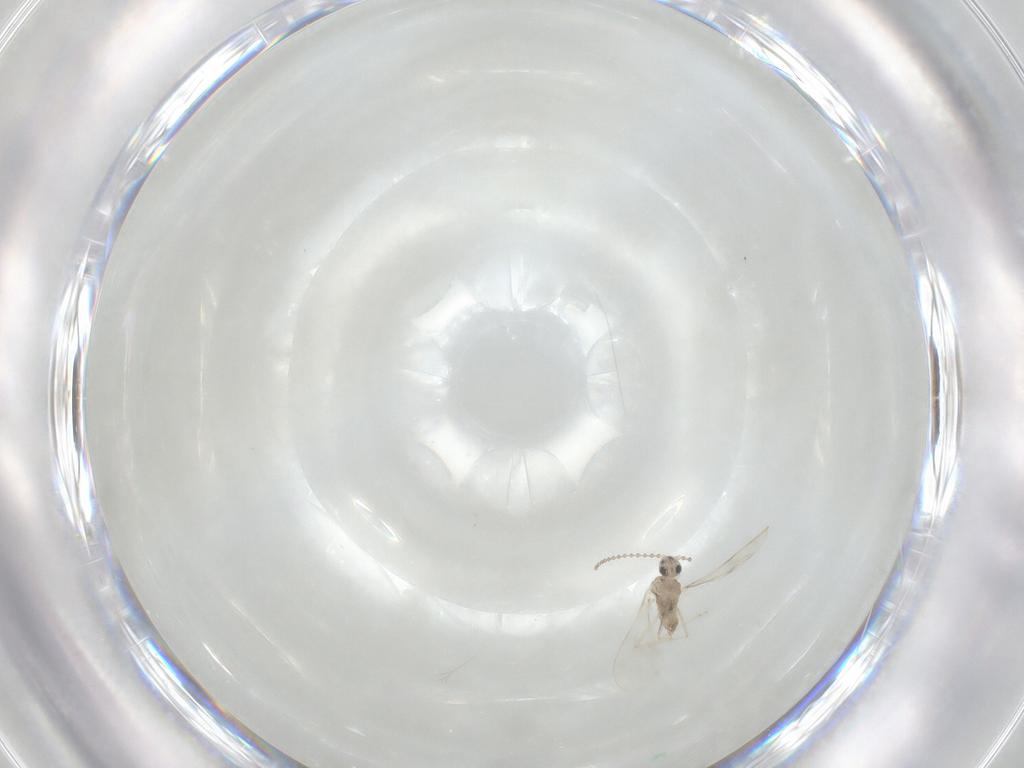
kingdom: Animalia
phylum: Arthropoda
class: Insecta
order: Diptera
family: Cecidomyiidae
